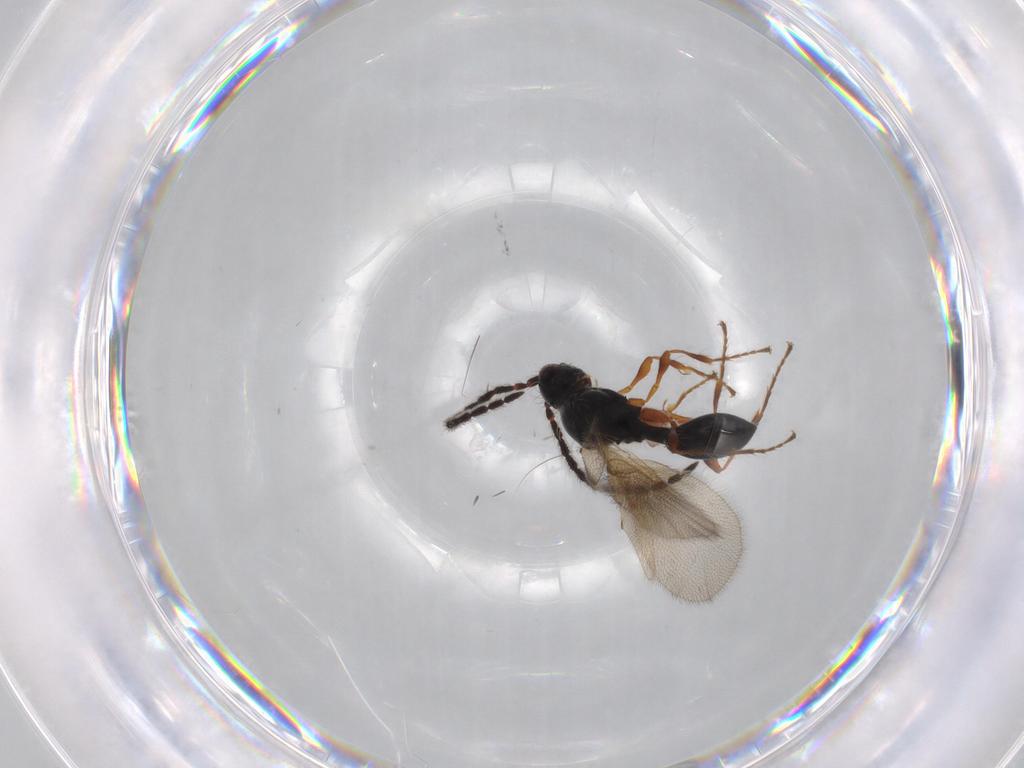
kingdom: Animalia
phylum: Arthropoda
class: Insecta
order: Hymenoptera
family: Diapriidae
